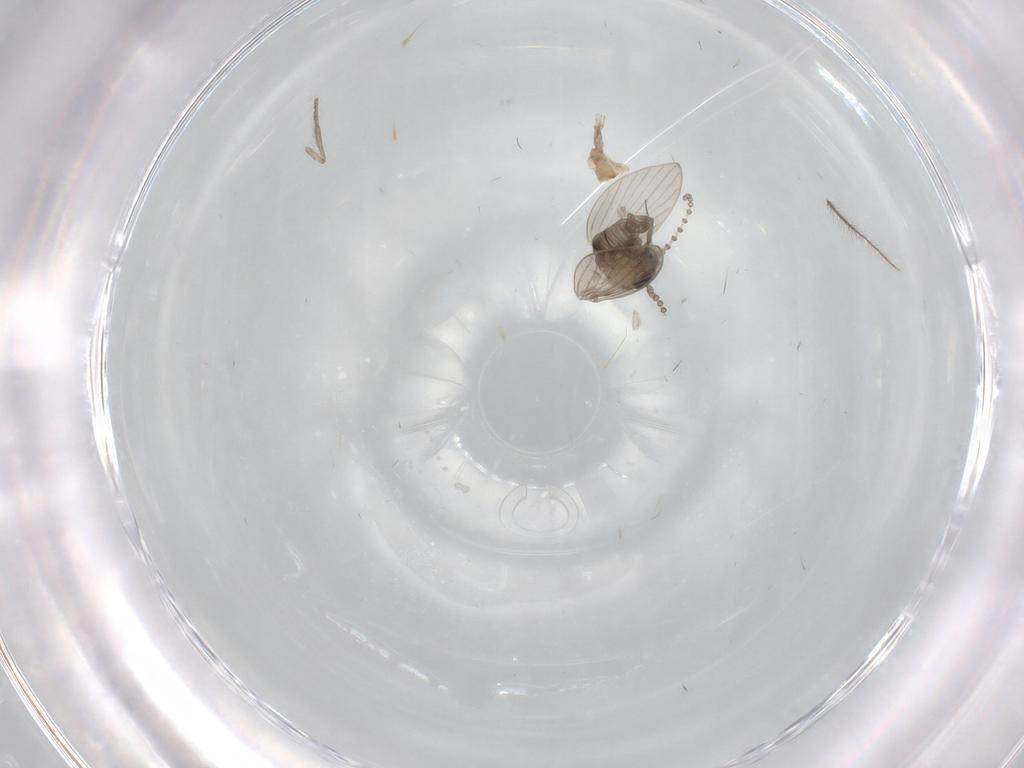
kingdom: Animalia
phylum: Arthropoda
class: Insecta
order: Diptera
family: Psychodidae
